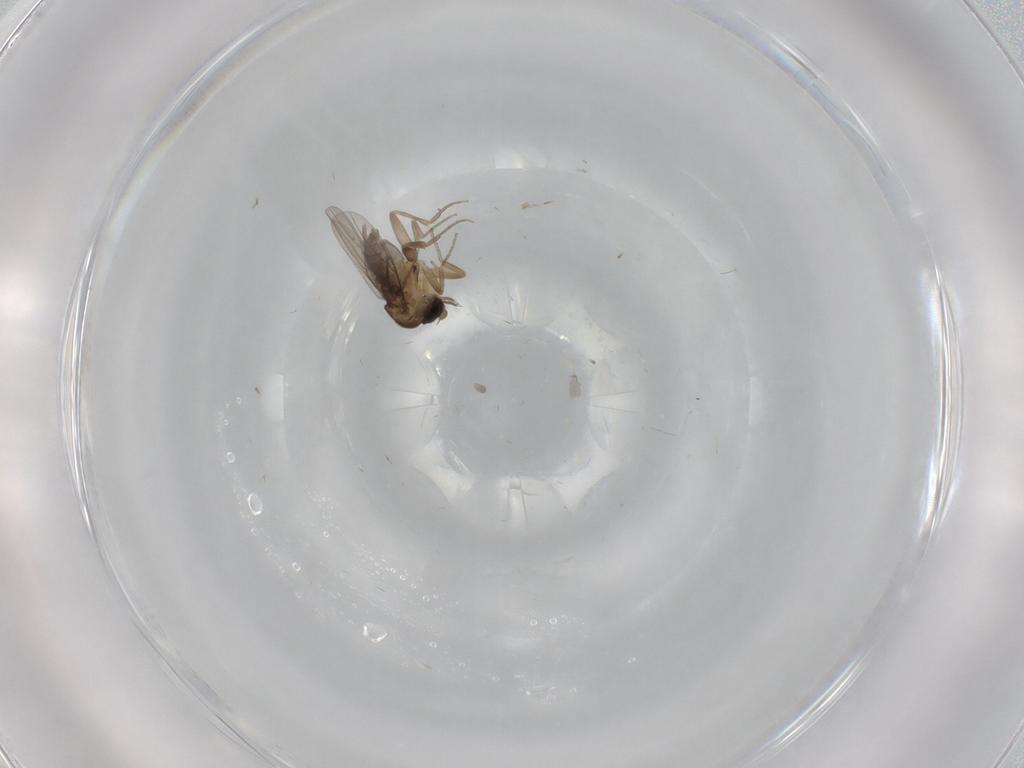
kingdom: Animalia
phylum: Arthropoda
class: Insecta
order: Diptera
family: Phoridae
